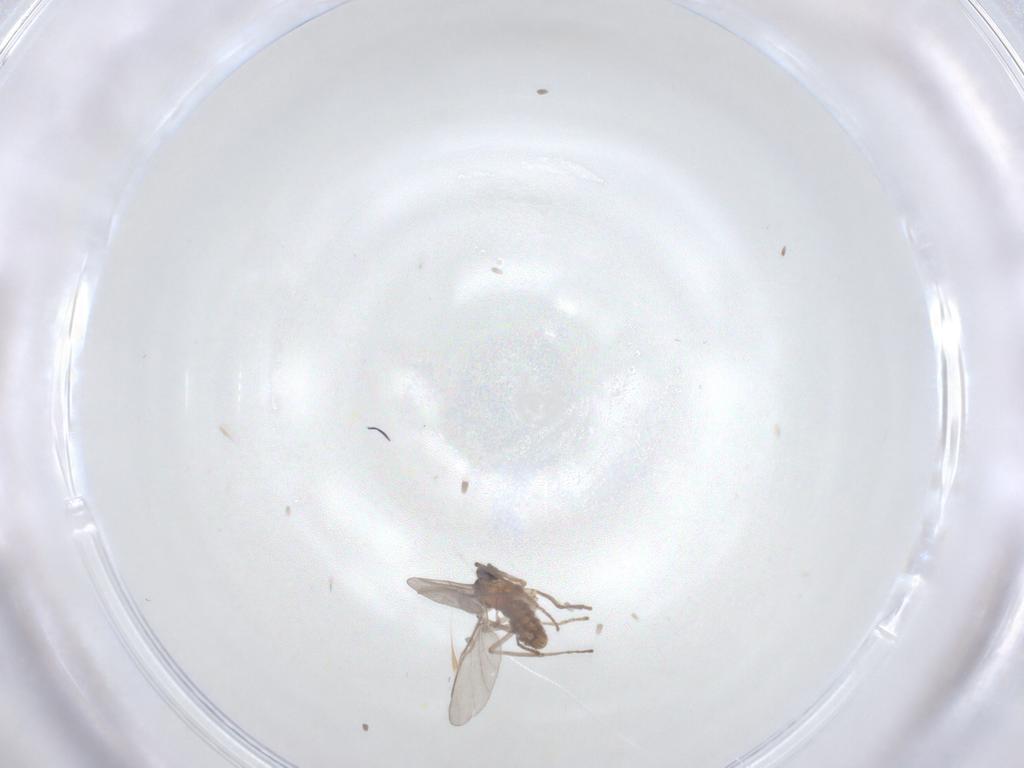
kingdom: Animalia
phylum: Arthropoda
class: Insecta
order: Diptera
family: Cecidomyiidae
